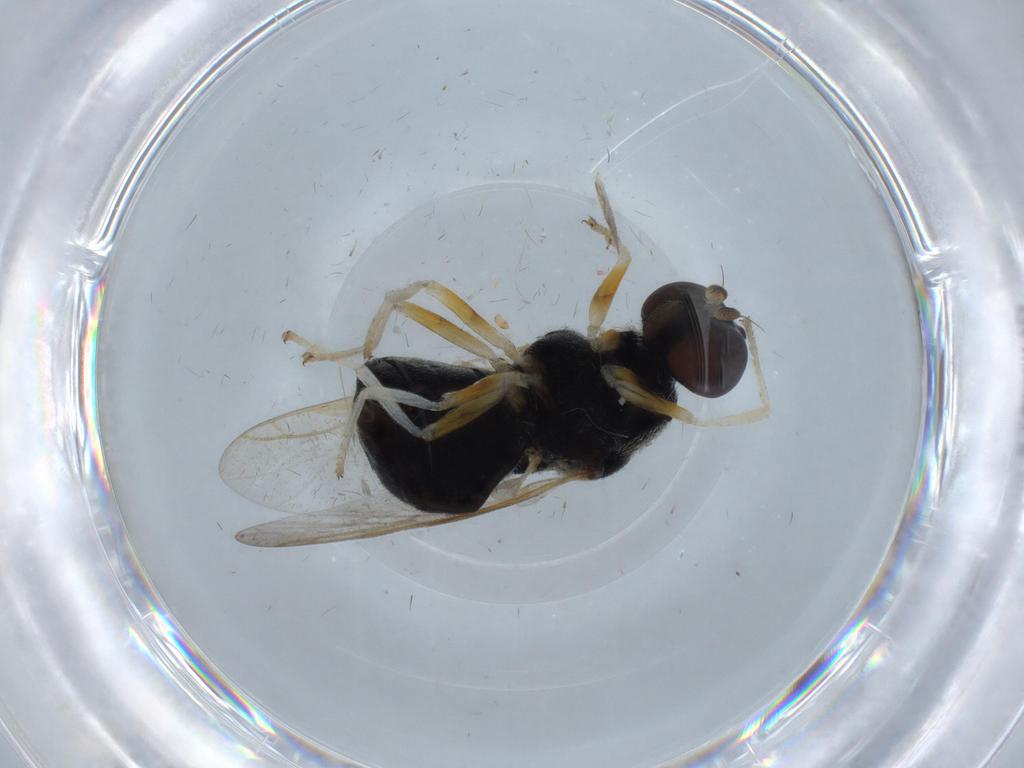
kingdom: Animalia
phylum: Arthropoda
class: Insecta
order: Diptera
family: Stratiomyidae
